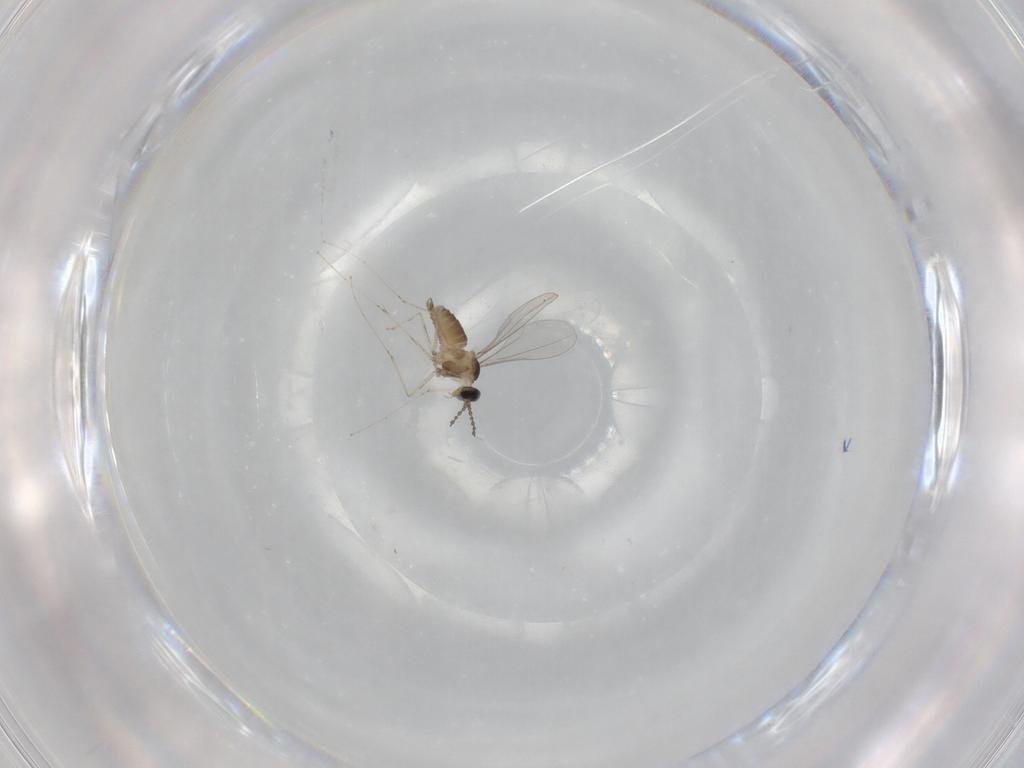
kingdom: Animalia
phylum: Arthropoda
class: Insecta
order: Diptera
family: Cecidomyiidae
